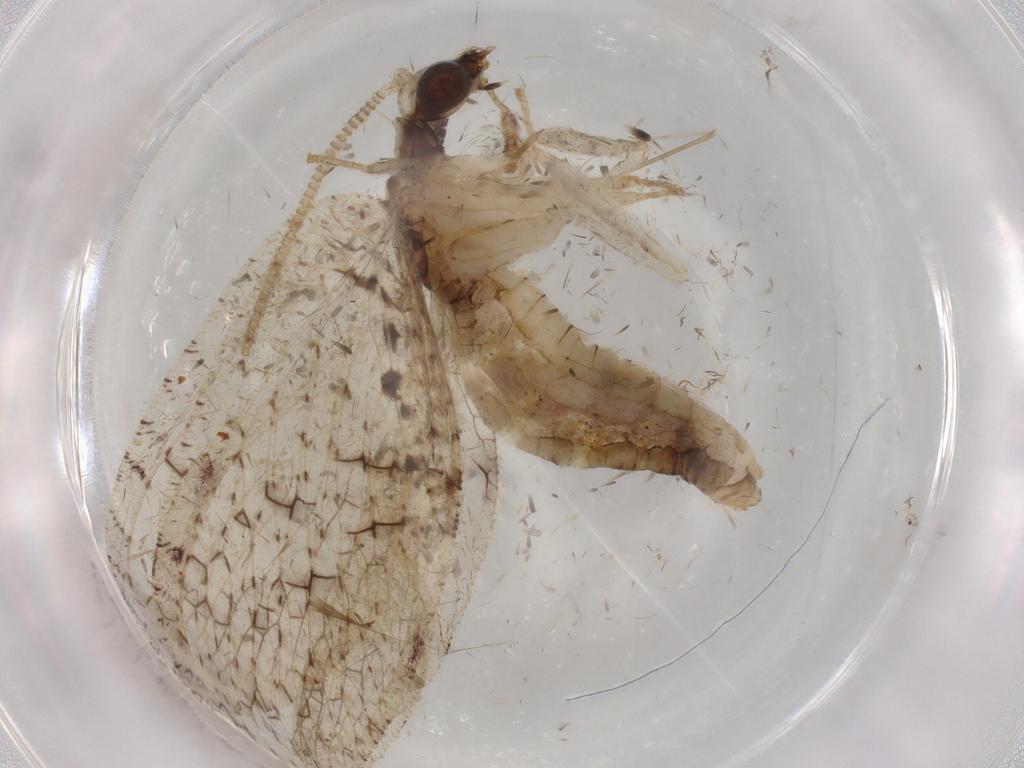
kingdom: Animalia
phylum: Arthropoda
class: Insecta
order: Neuroptera
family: Hemerobiidae
